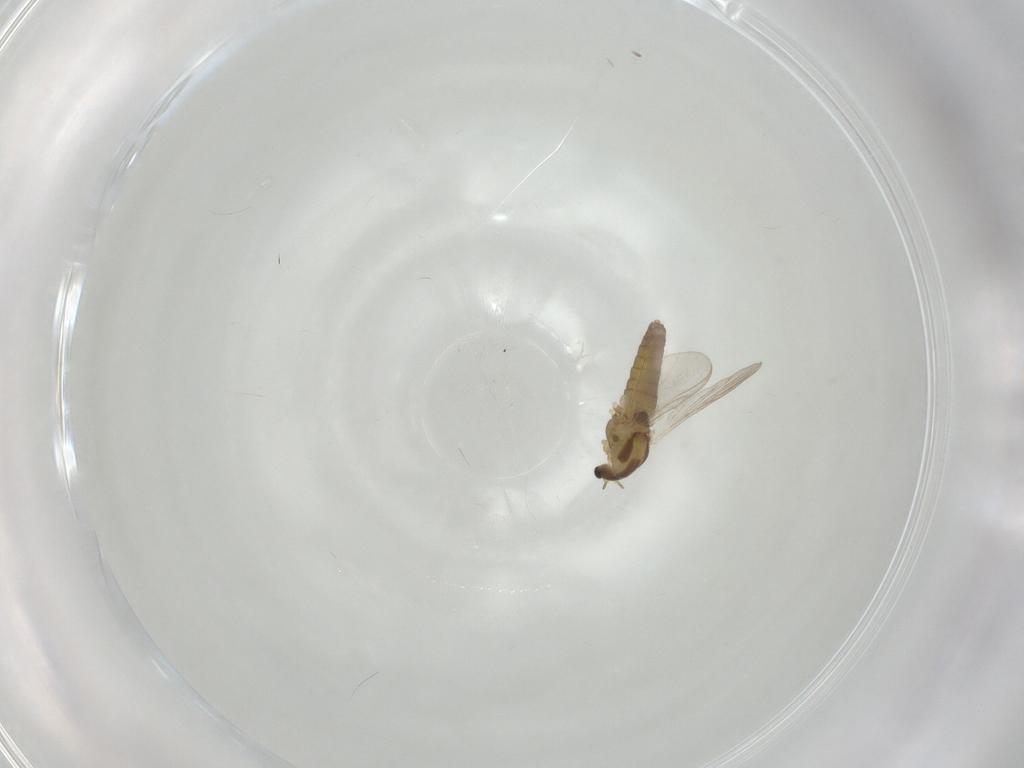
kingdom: Animalia
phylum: Arthropoda
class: Insecta
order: Diptera
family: Chironomidae
